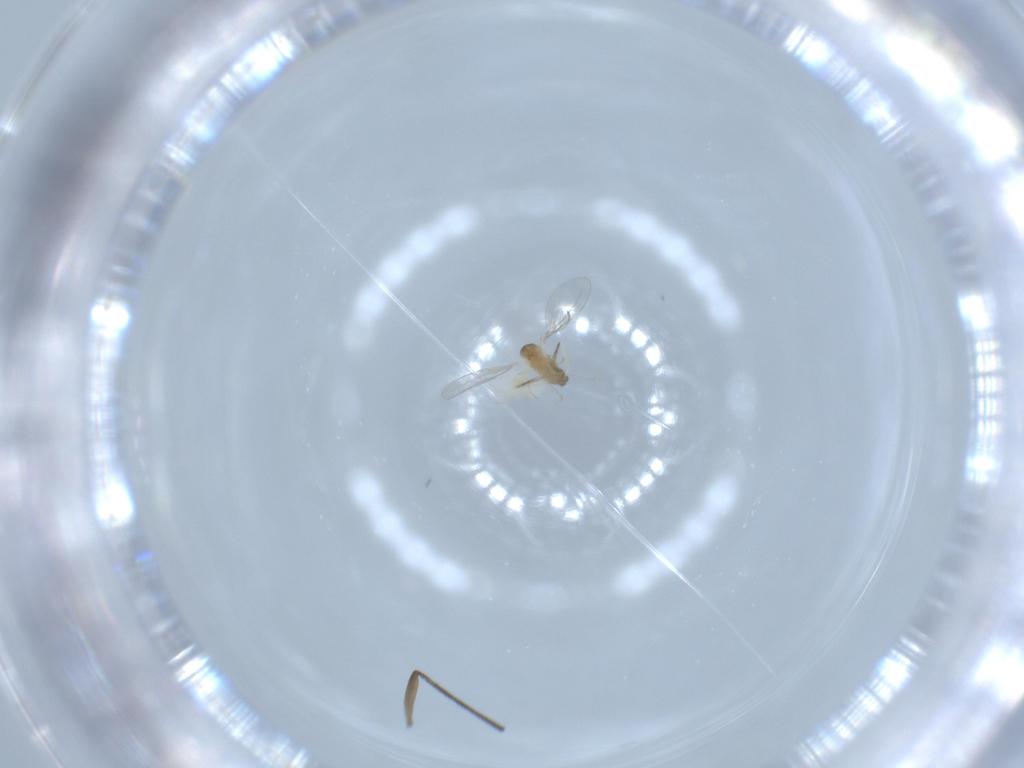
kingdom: Animalia
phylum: Arthropoda
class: Insecta
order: Diptera
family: Cecidomyiidae
